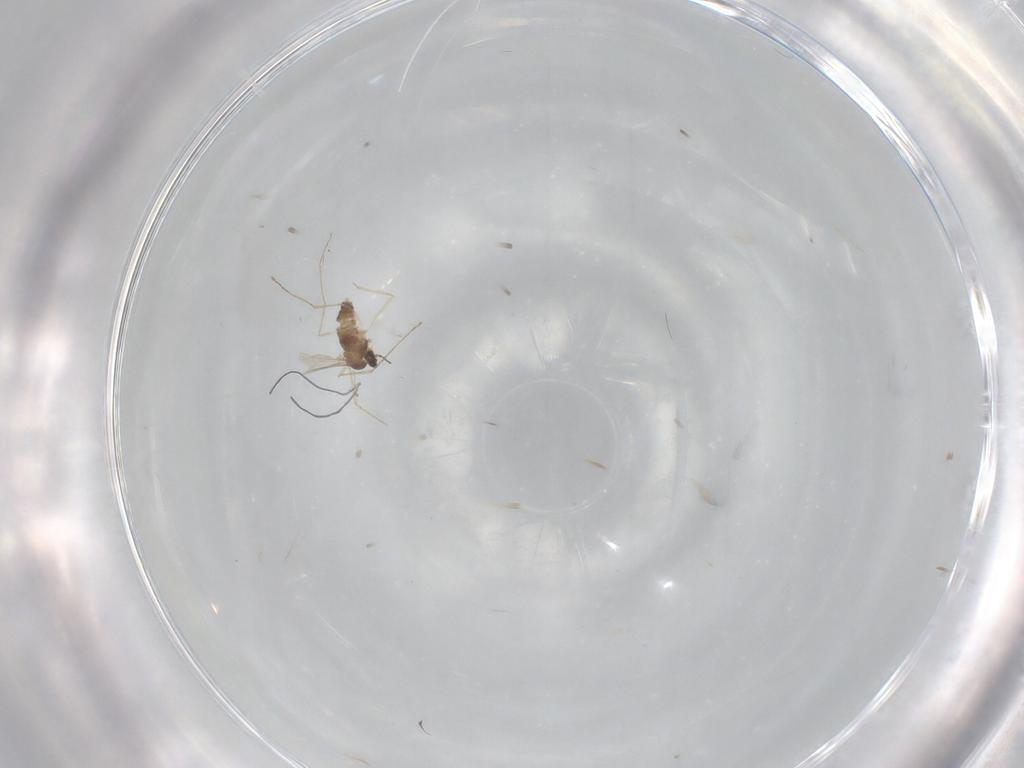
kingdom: Animalia
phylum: Arthropoda
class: Insecta
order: Diptera
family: Cecidomyiidae
